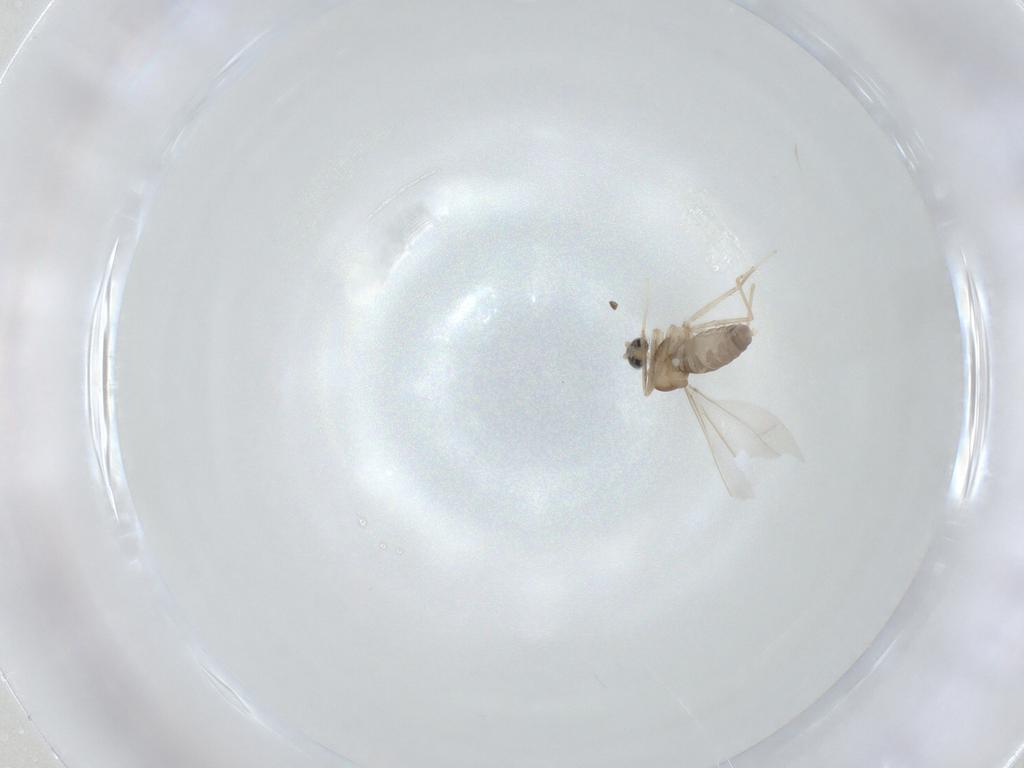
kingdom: Animalia
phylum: Arthropoda
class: Insecta
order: Diptera
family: Cecidomyiidae
